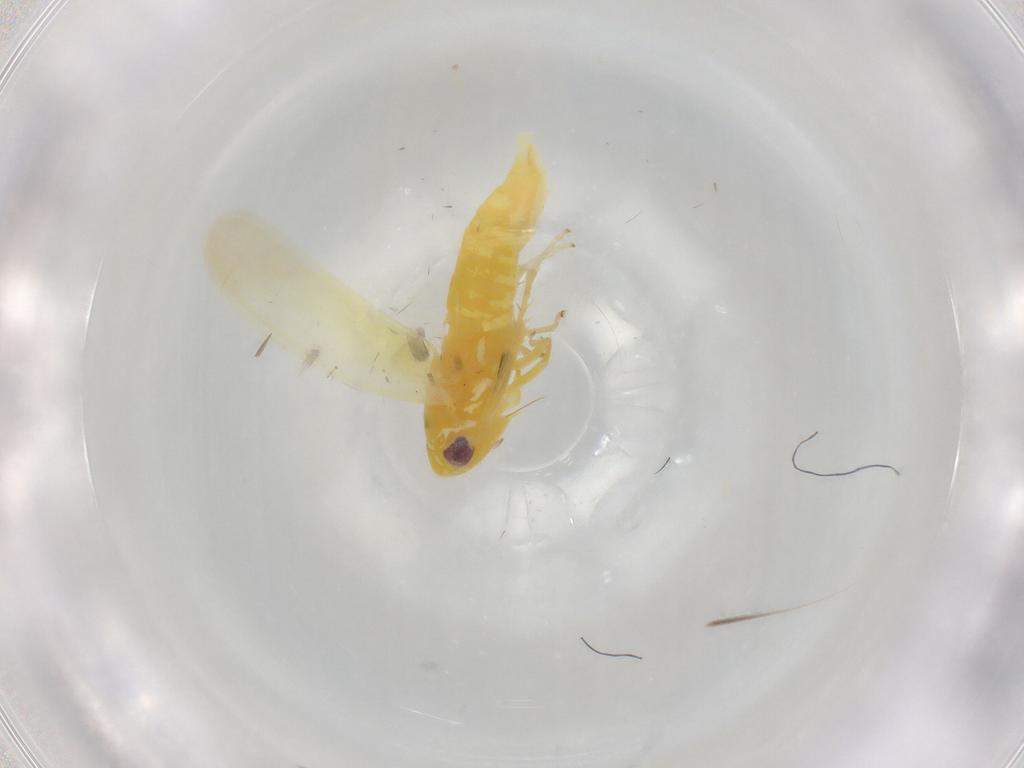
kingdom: Animalia
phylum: Arthropoda
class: Insecta
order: Hemiptera
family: Cicadellidae
